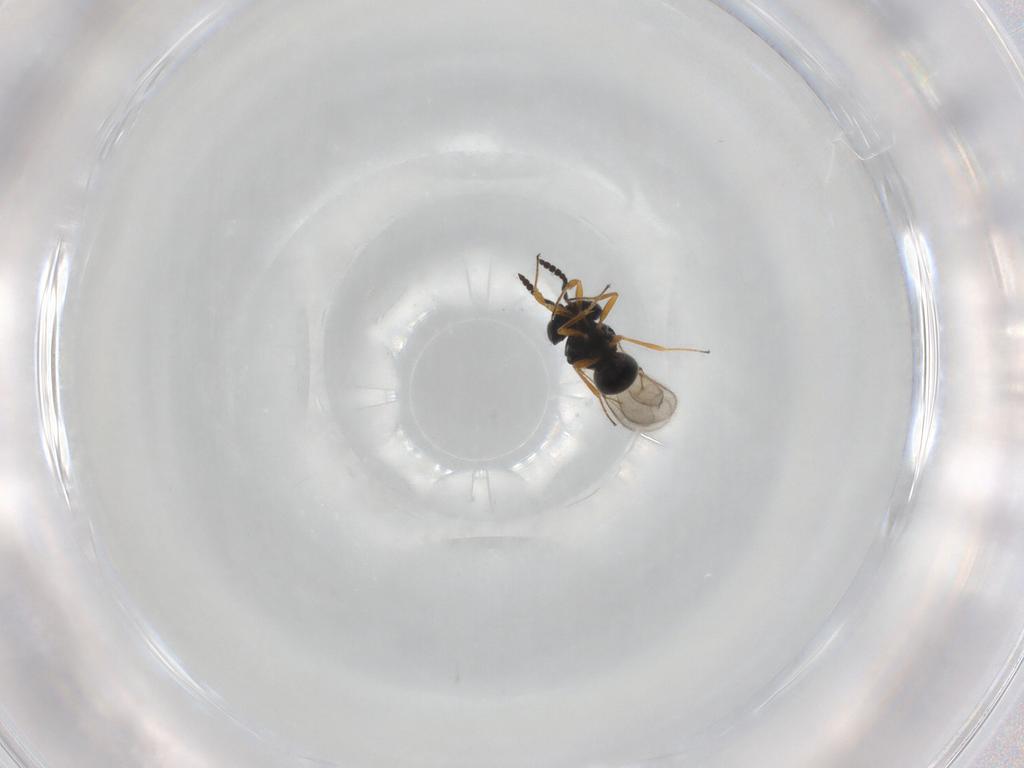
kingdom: Animalia
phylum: Arthropoda
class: Insecta
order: Hymenoptera
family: Scelionidae
